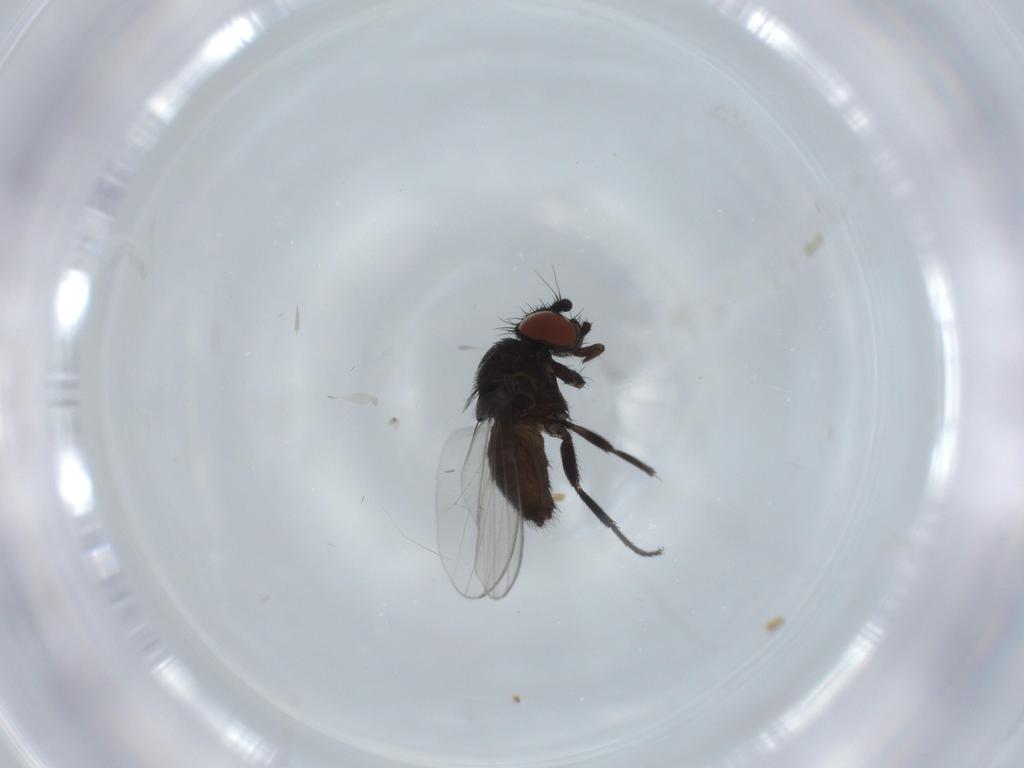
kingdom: Animalia
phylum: Arthropoda
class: Insecta
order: Diptera
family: Milichiidae
